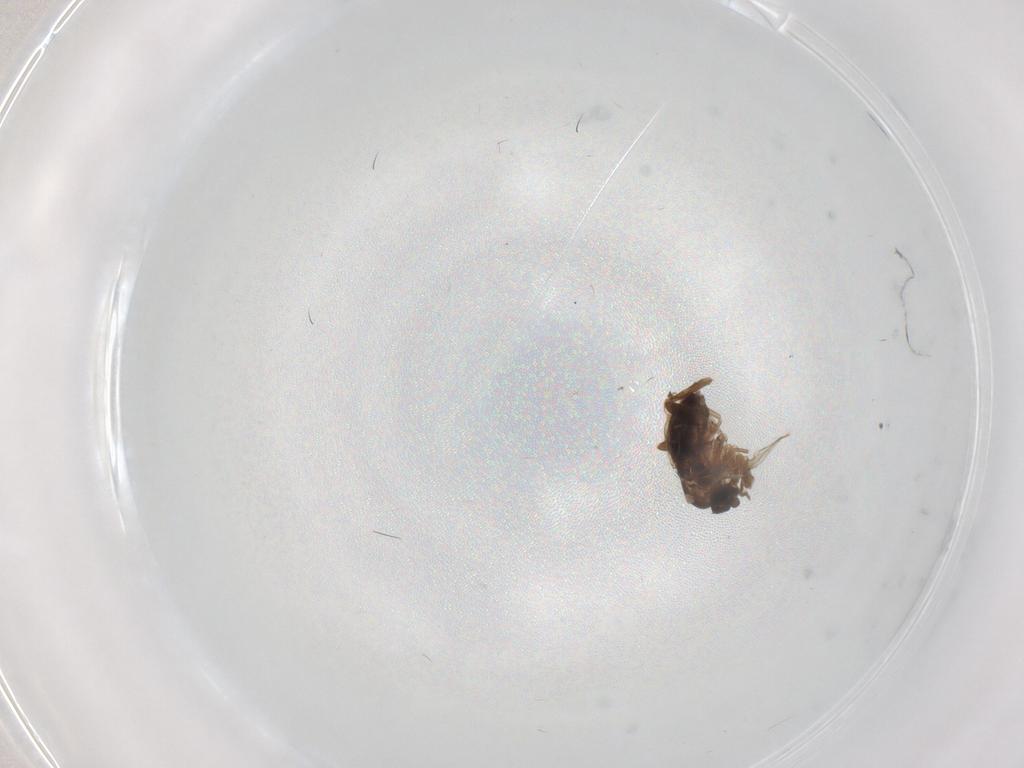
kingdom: Animalia
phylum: Arthropoda
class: Insecta
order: Diptera
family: Chironomidae
